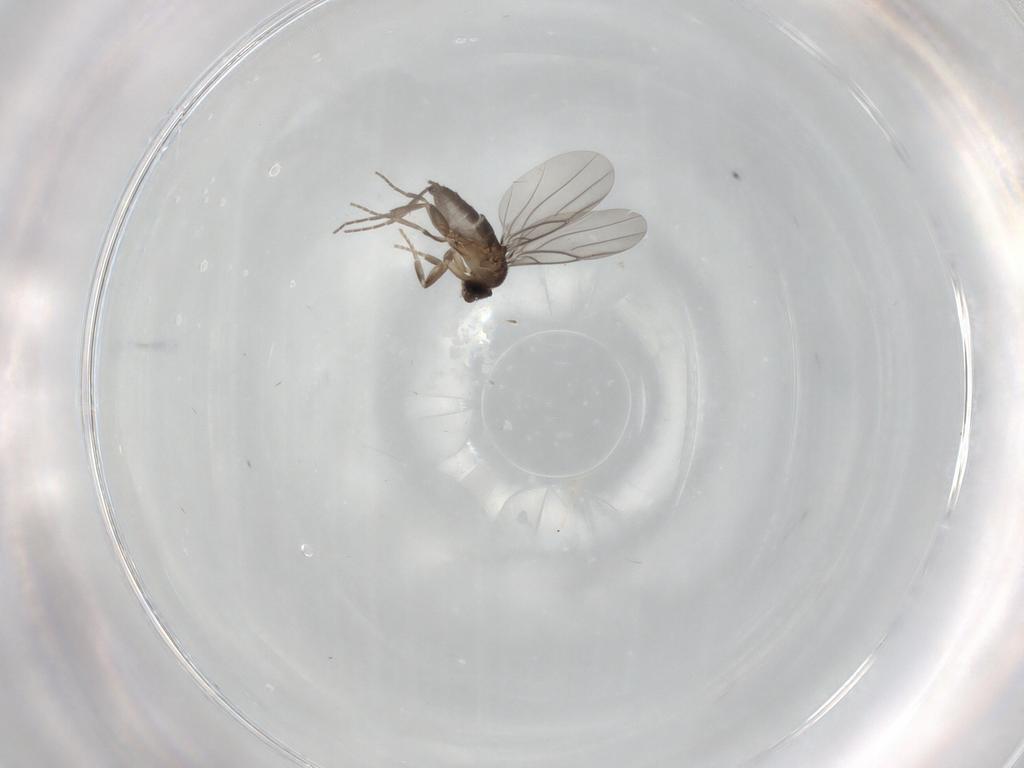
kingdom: Animalia
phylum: Arthropoda
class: Insecta
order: Diptera
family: Phoridae
